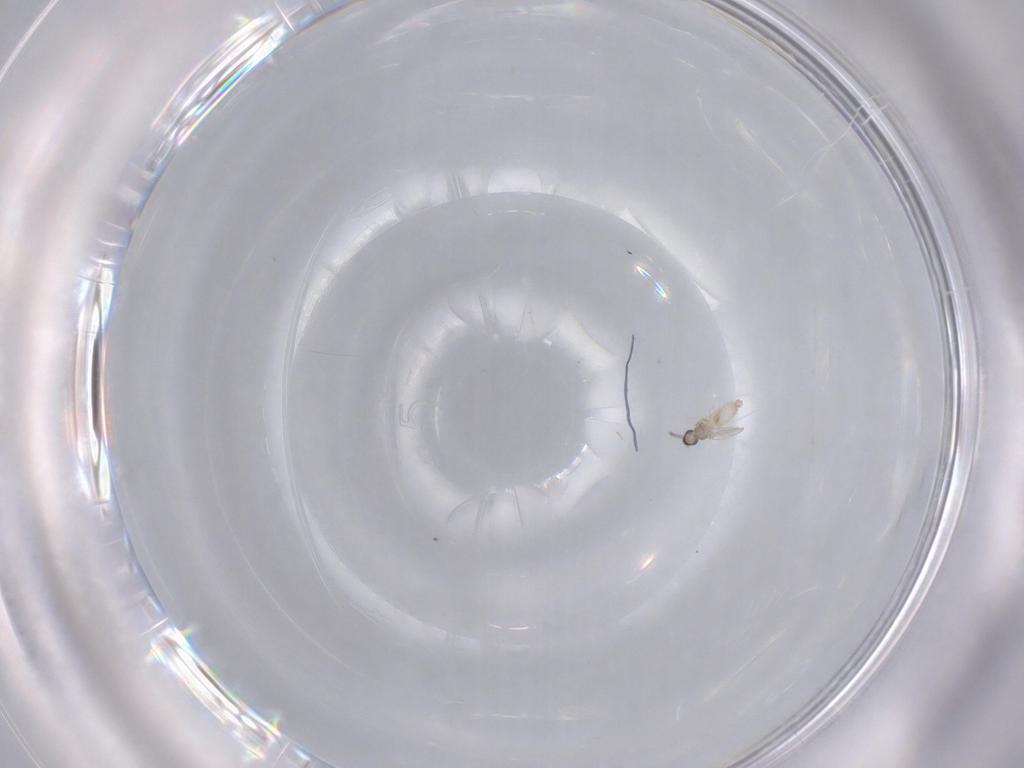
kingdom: Animalia
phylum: Arthropoda
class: Insecta
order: Diptera
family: Cecidomyiidae
